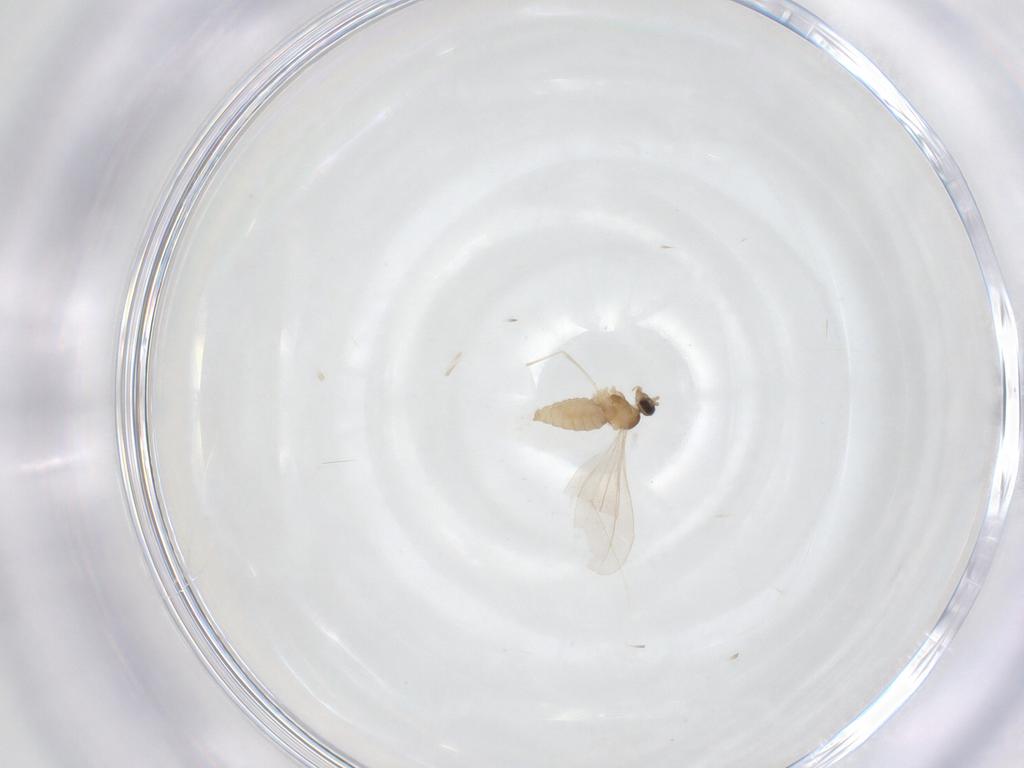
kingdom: Animalia
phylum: Arthropoda
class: Insecta
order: Diptera
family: Cecidomyiidae
